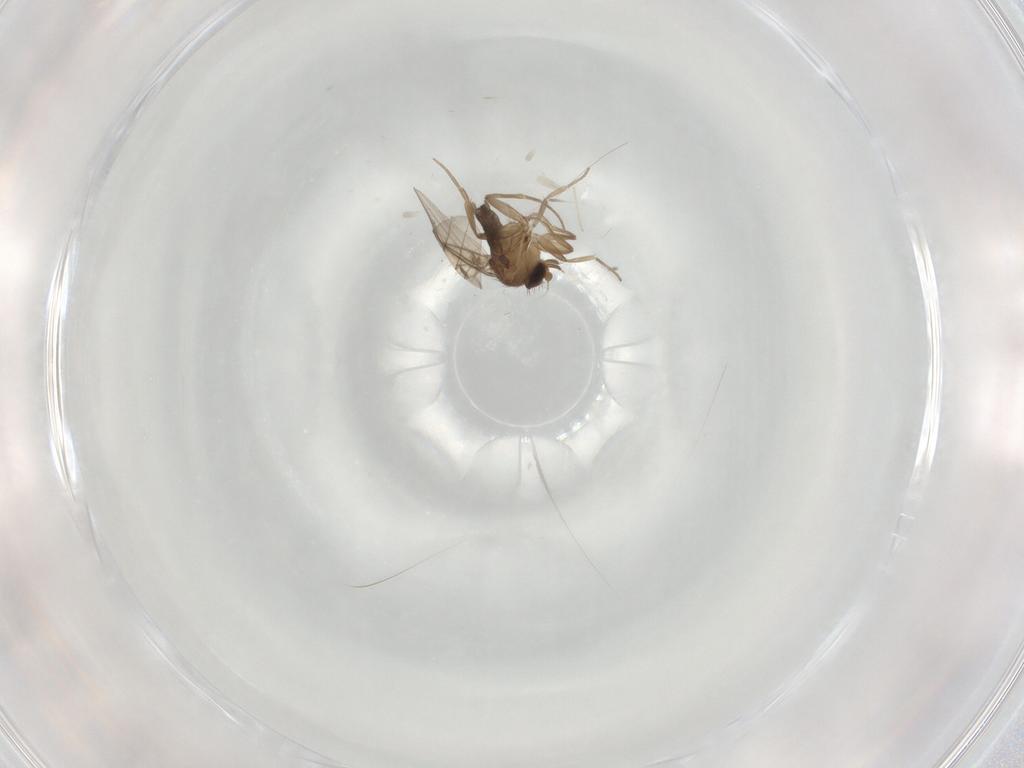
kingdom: Animalia
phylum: Arthropoda
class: Insecta
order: Diptera
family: Phoridae
